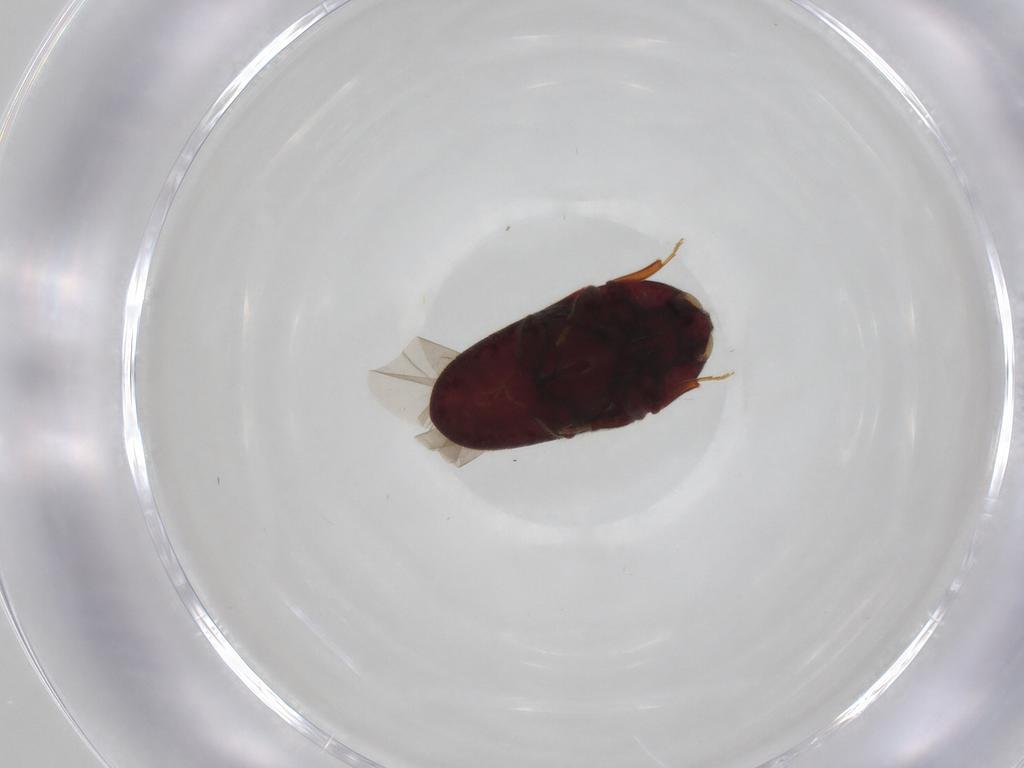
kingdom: Animalia
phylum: Arthropoda
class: Insecta
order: Coleoptera
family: Throscidae
